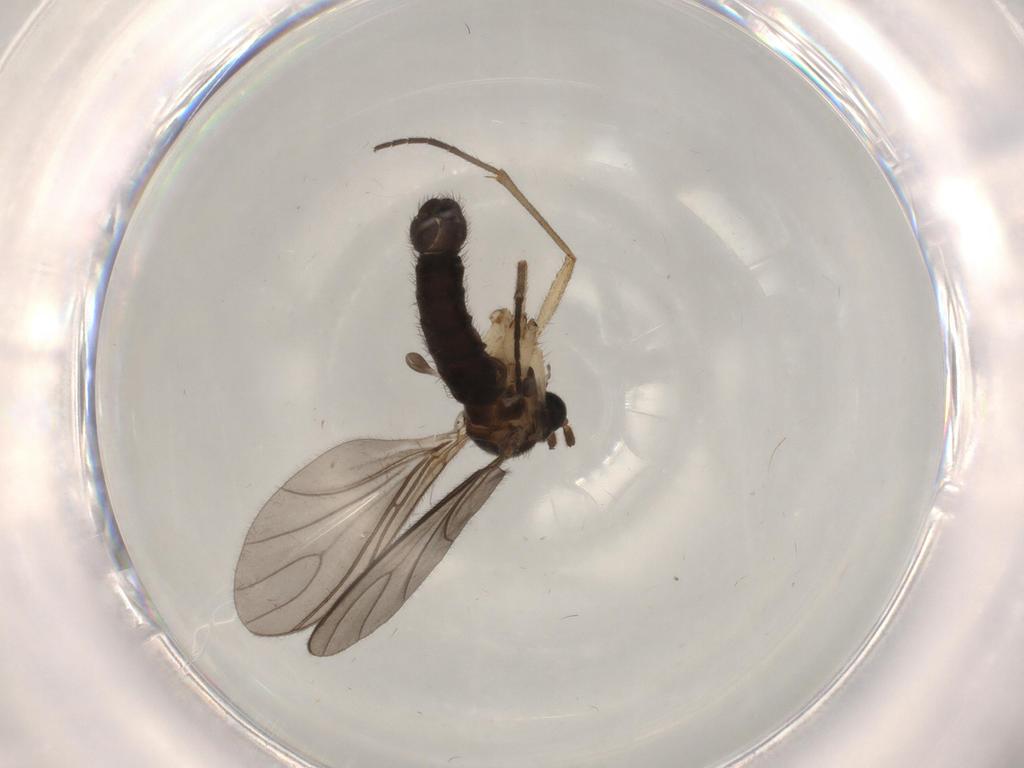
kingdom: Animalia
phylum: Arthropoda
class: Insecta
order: Diptera
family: Sciaridae
